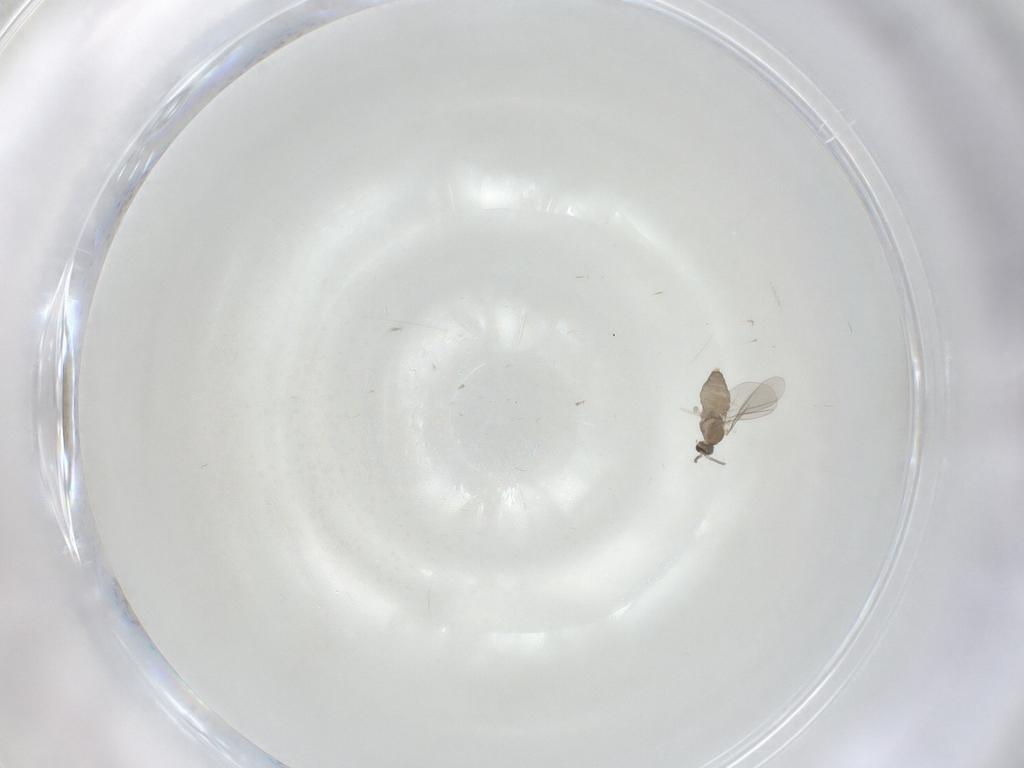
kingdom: Animalia
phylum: Arthropoda
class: Insecta
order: Diptera
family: Cecidomyiidae
